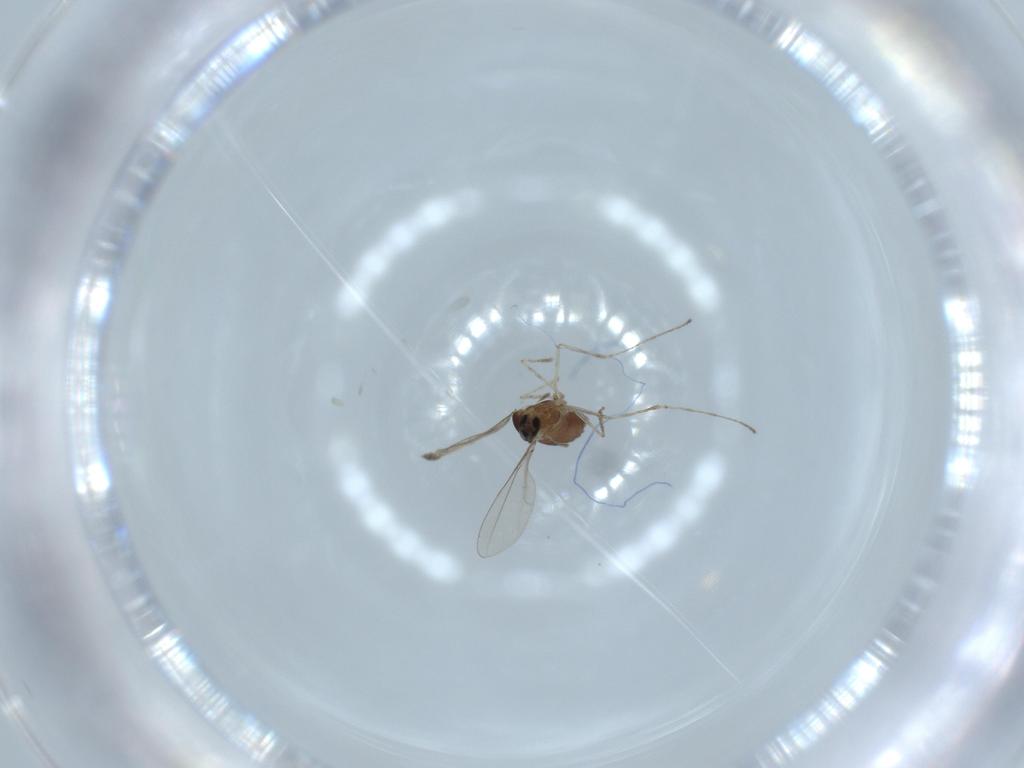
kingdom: Animalia
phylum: Arthropoda
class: Insecta
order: Diptera
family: Cecidomyiidae
